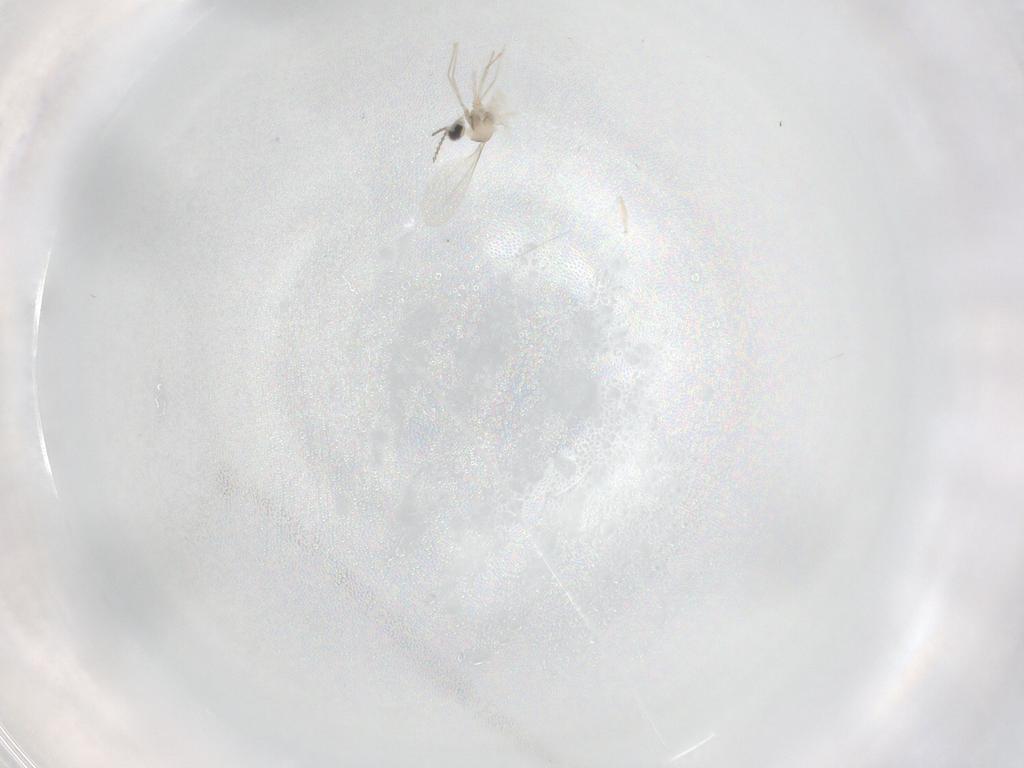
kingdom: Animalia
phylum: Arthropoda
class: Insecta
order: Diptera
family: Cecidomyiidae
